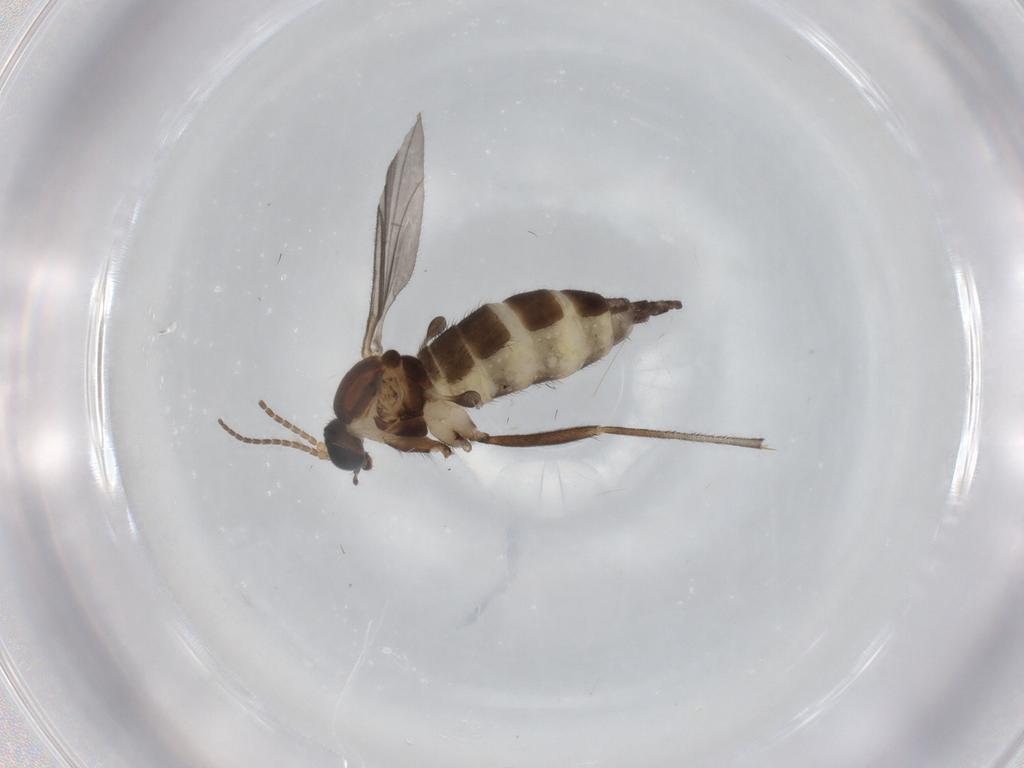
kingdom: Animalia
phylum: Arthropoda
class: Insecta
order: Diptera
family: Sciaridae
